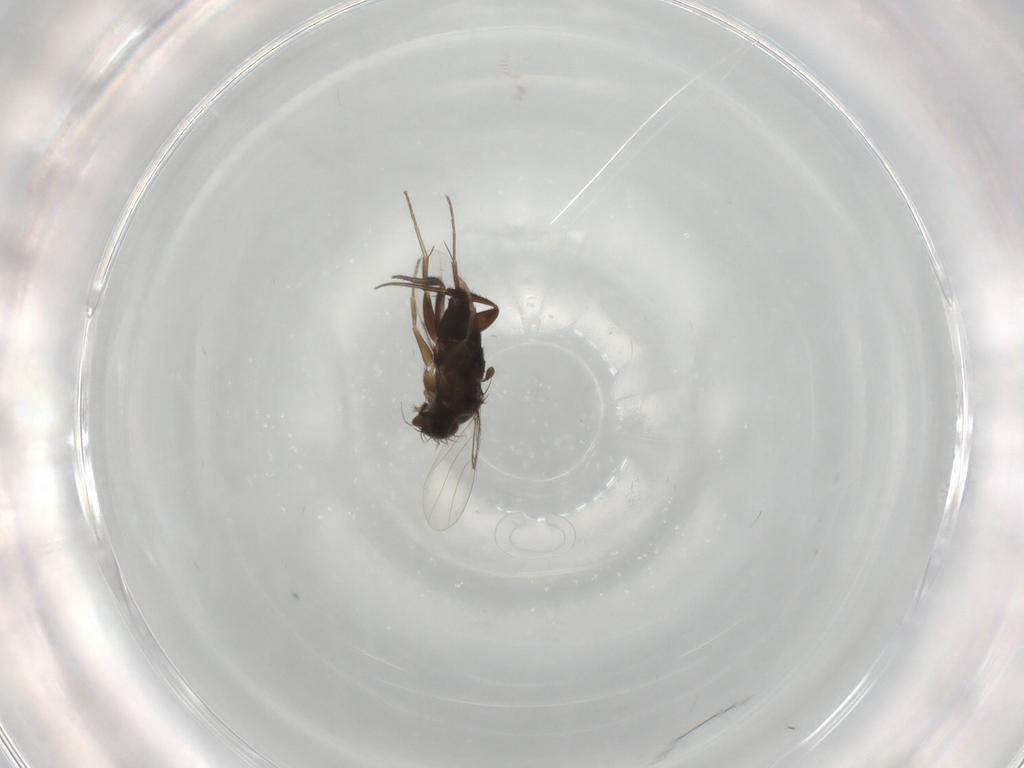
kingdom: Animalia
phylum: Arthropoda
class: Insecta
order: Diptera
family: Phoridae
